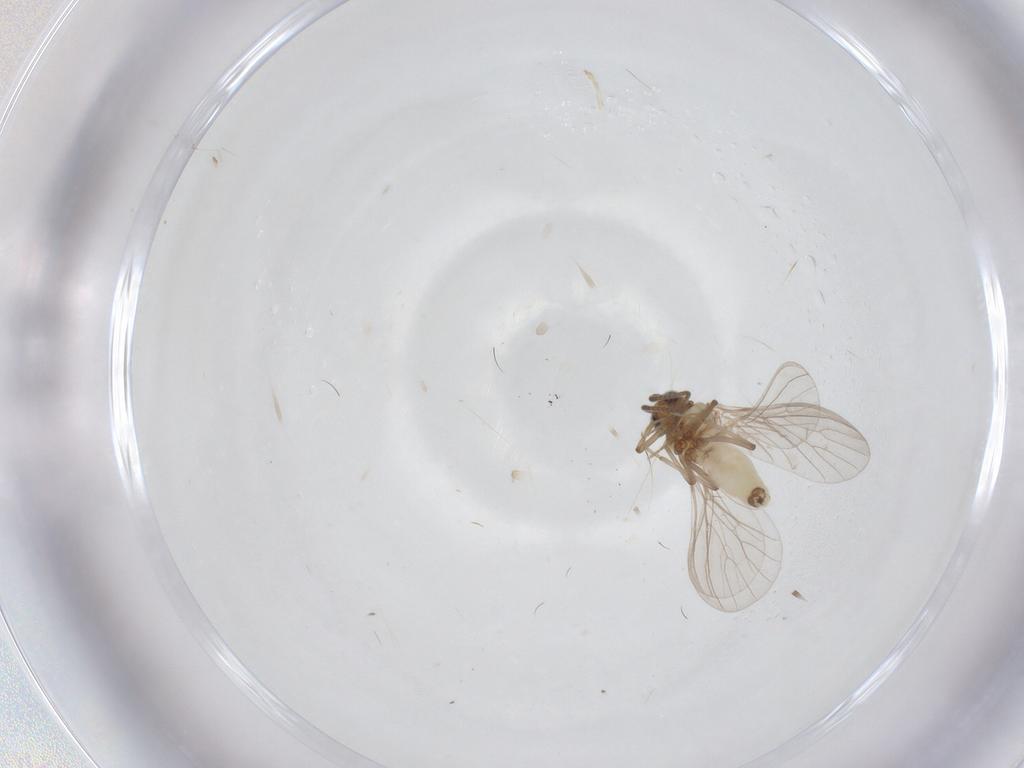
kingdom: Animalia
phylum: Arthropoda
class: Insecta
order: Neuroptera
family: Coniopterygidae
